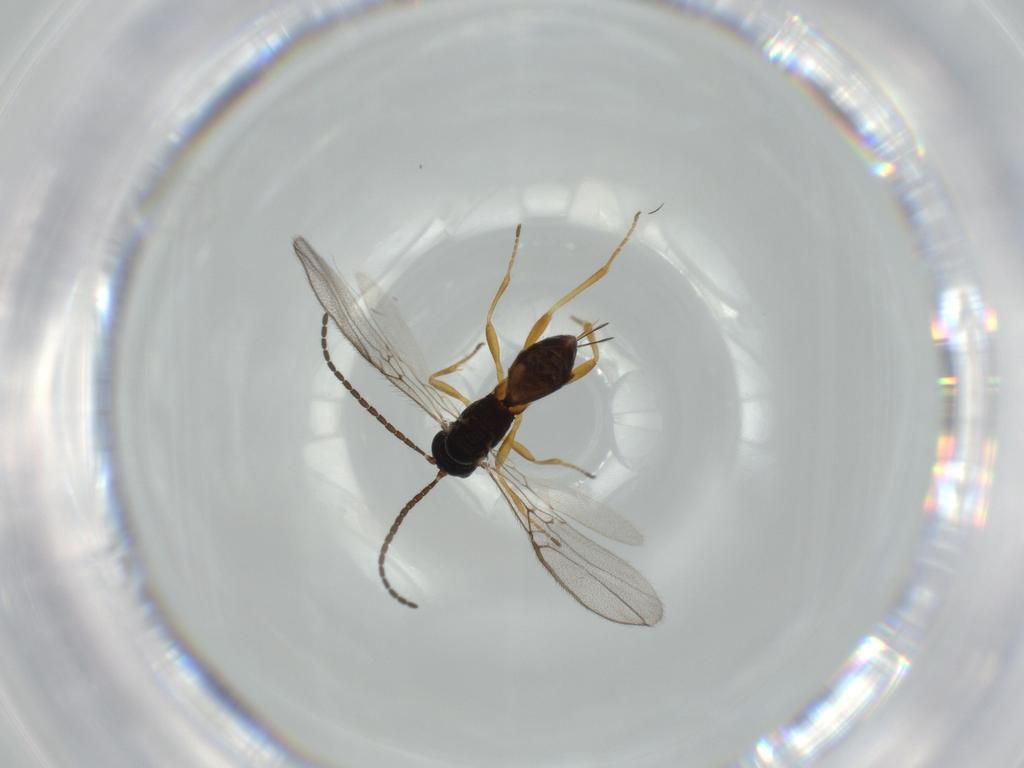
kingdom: Animalia
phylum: Arthropoda
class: Insecta
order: Hymenoptera
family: Braconidae
